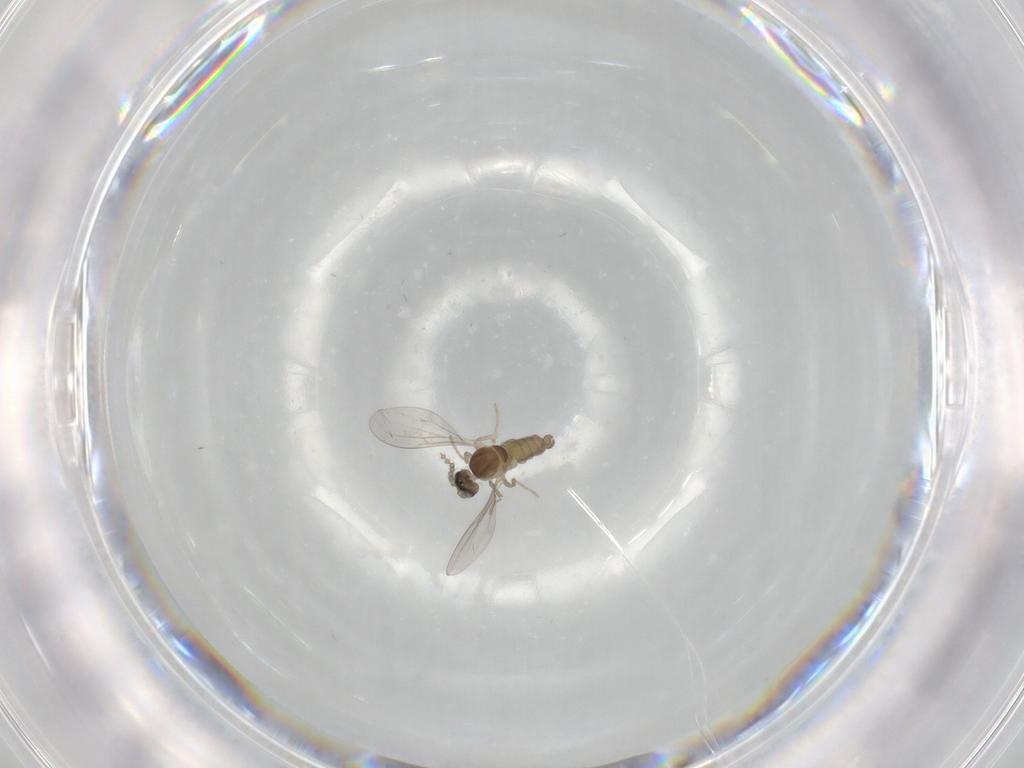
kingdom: Animalia
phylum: Arthropoda
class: Insecta
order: Diptera
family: Cecidomyiidae
